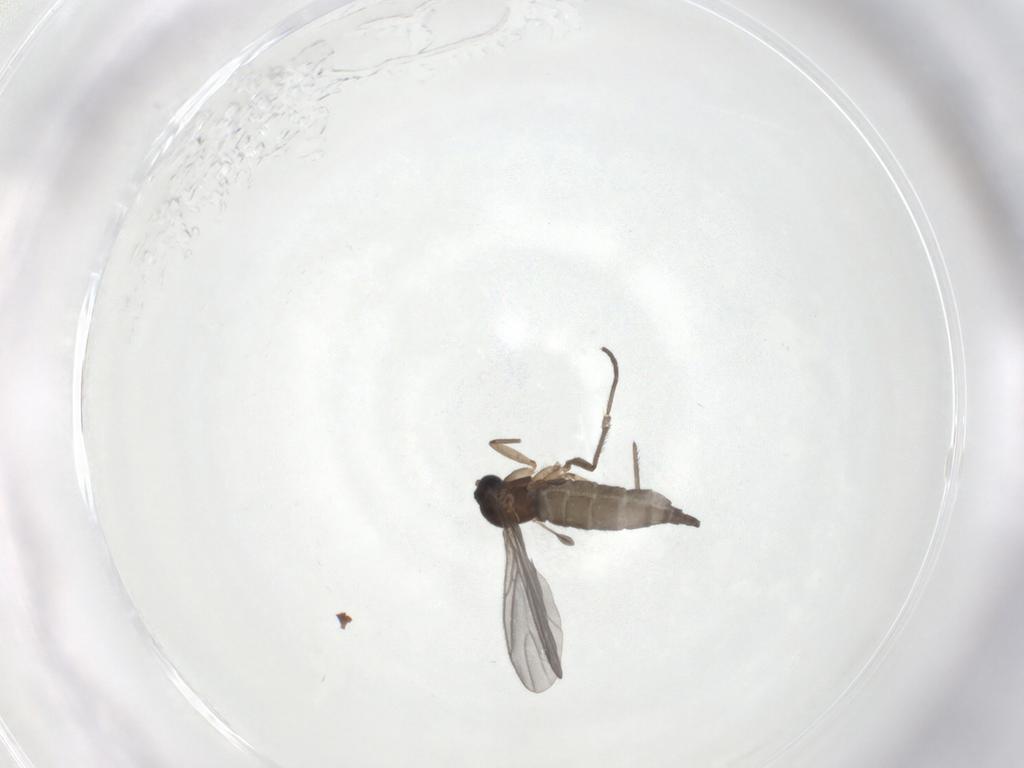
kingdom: Animalia
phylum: Arthropoda
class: Insecta
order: Diptera
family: Sciaridae
